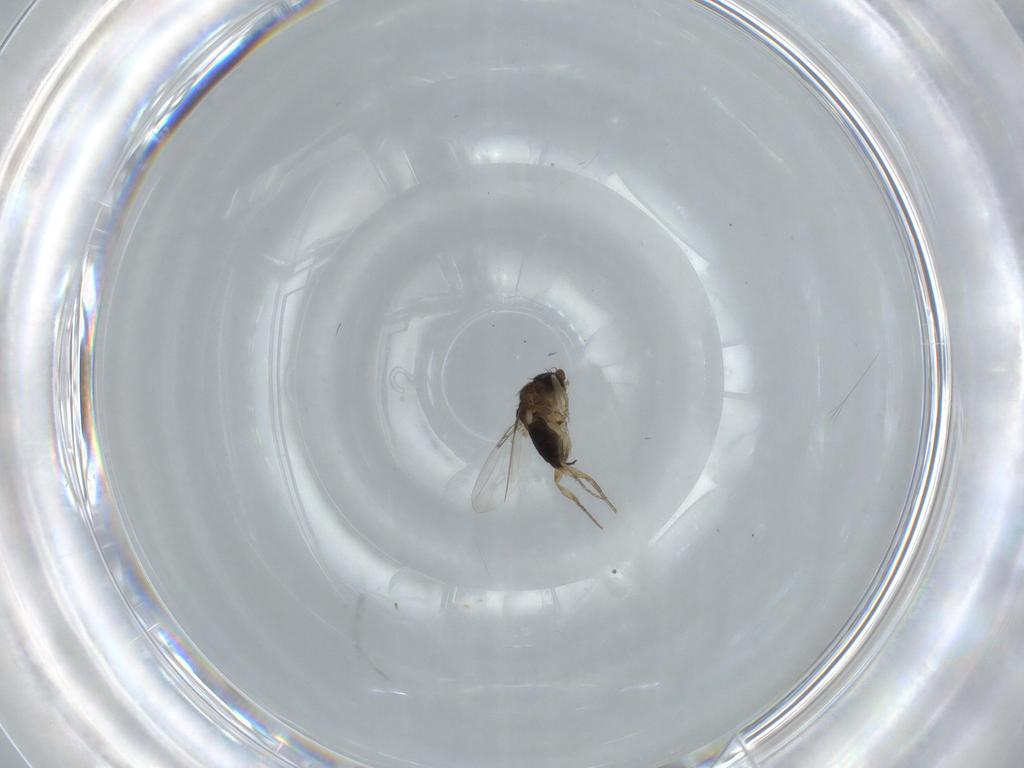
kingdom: Animalia
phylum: Arthropoda
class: Insecta
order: Diptera
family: Phoridae
